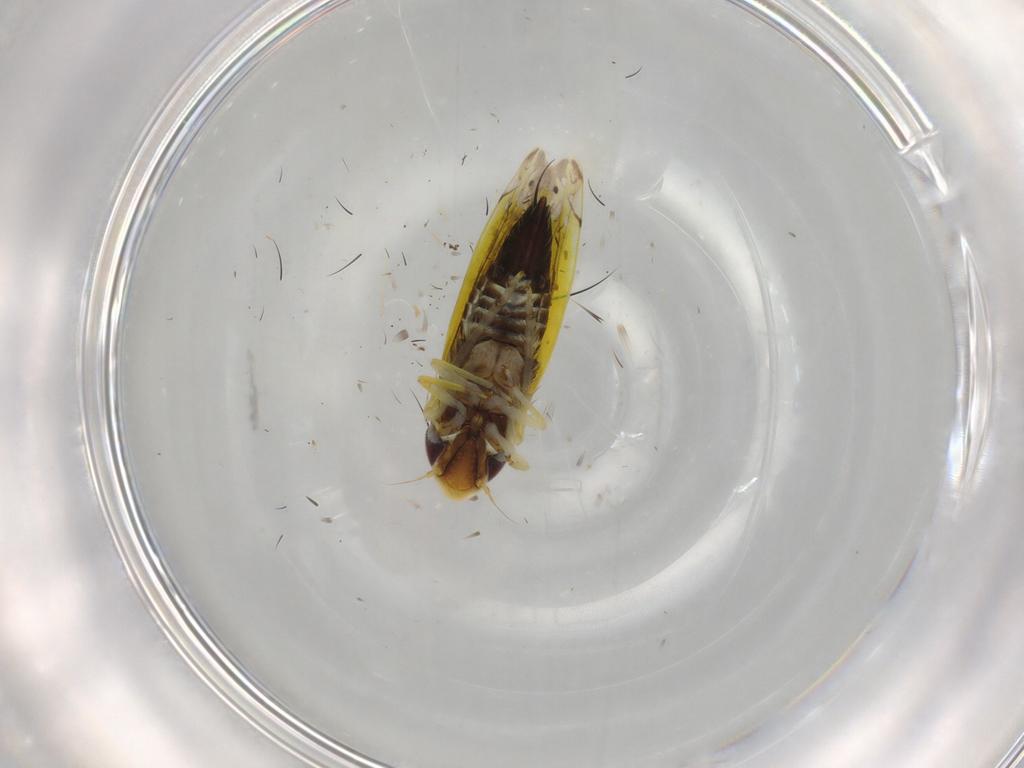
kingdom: Animalia
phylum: Arthropoda
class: Insecta
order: Hemiptera
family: Cicadellidae
